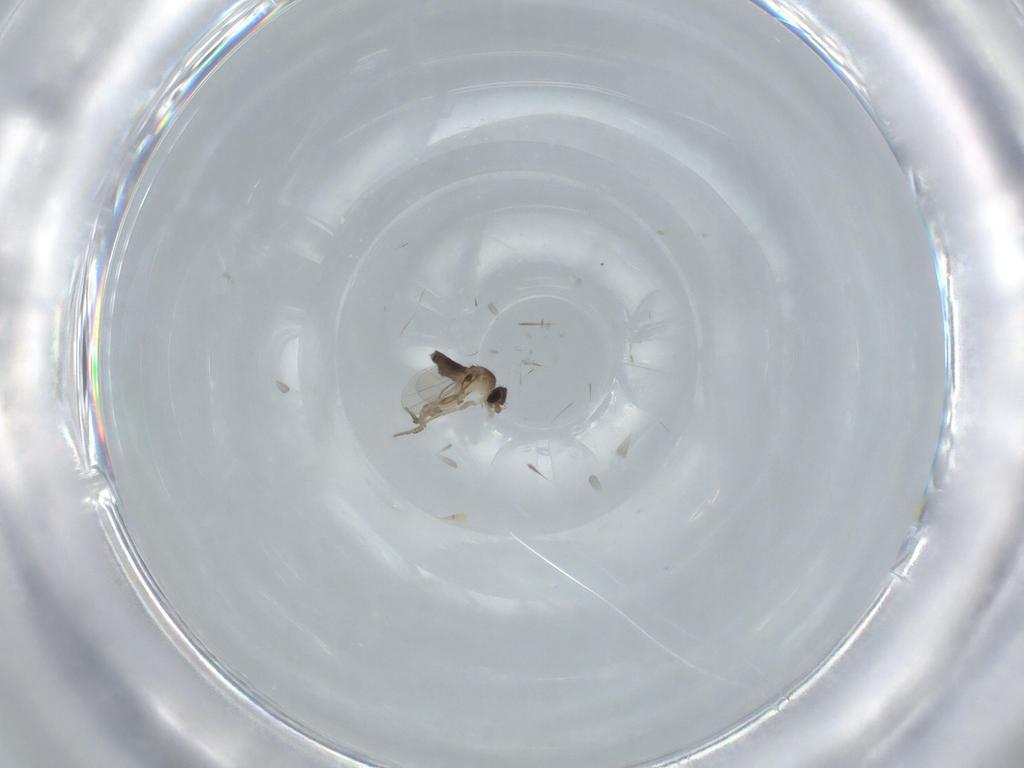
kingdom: Animalia
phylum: Arthropoda
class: Insecta
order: Diptera
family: Phoridae
